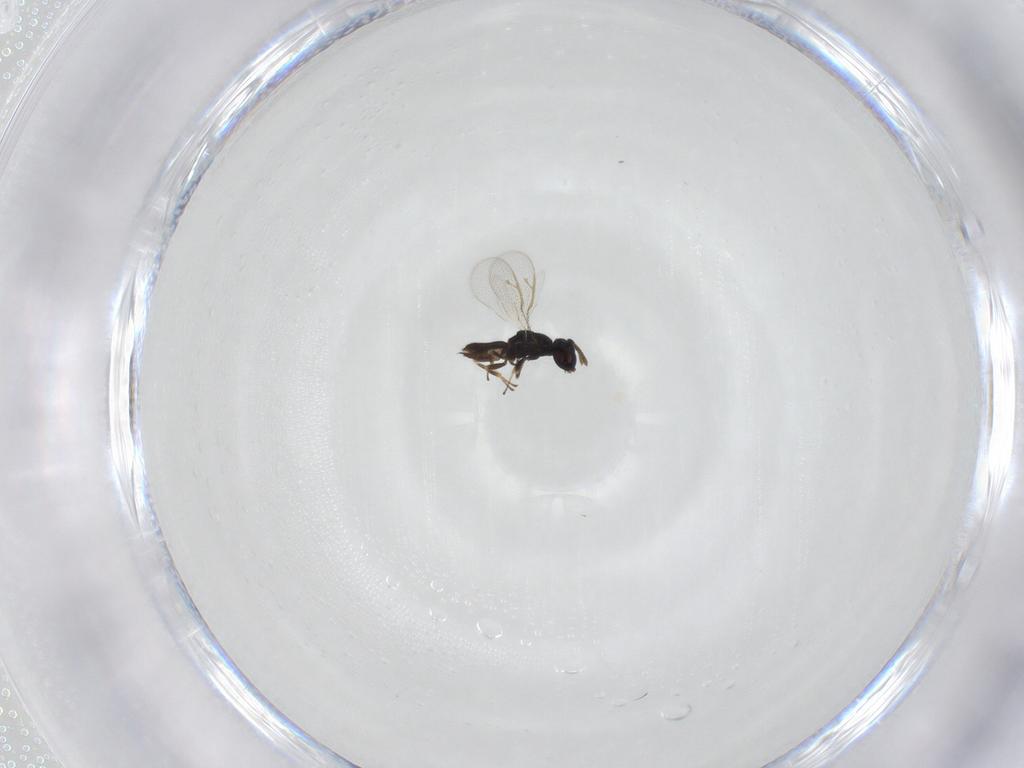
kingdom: Animalia
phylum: Arthropoda
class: Insecta
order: Hymenoptera
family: Pteromalidae
